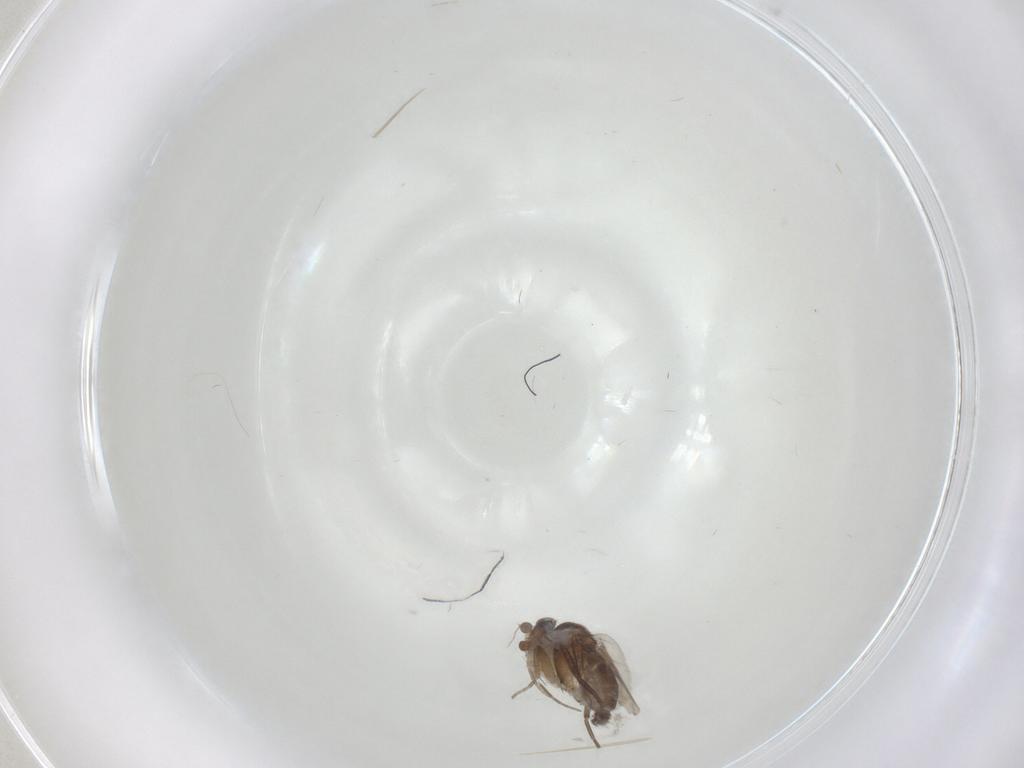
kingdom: Animalia
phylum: Arthropoda
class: Insecta
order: Diptera
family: Phoridae
